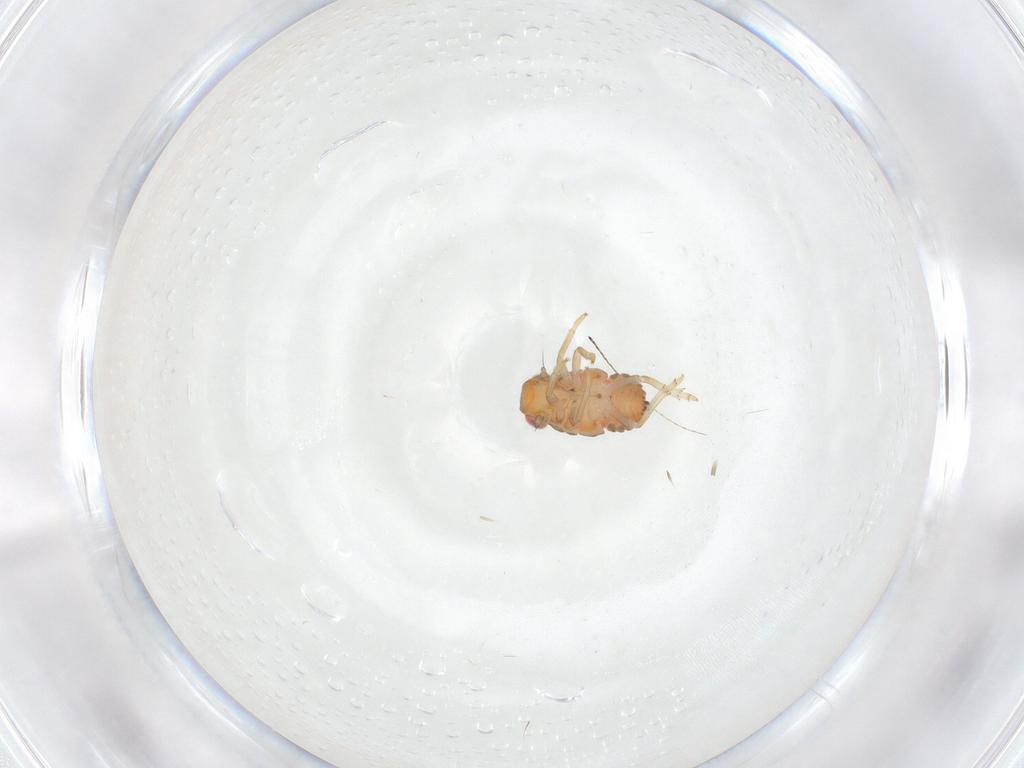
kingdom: Animalia
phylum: Arthropoda
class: Insecta
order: Hemiptera
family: Issidae
